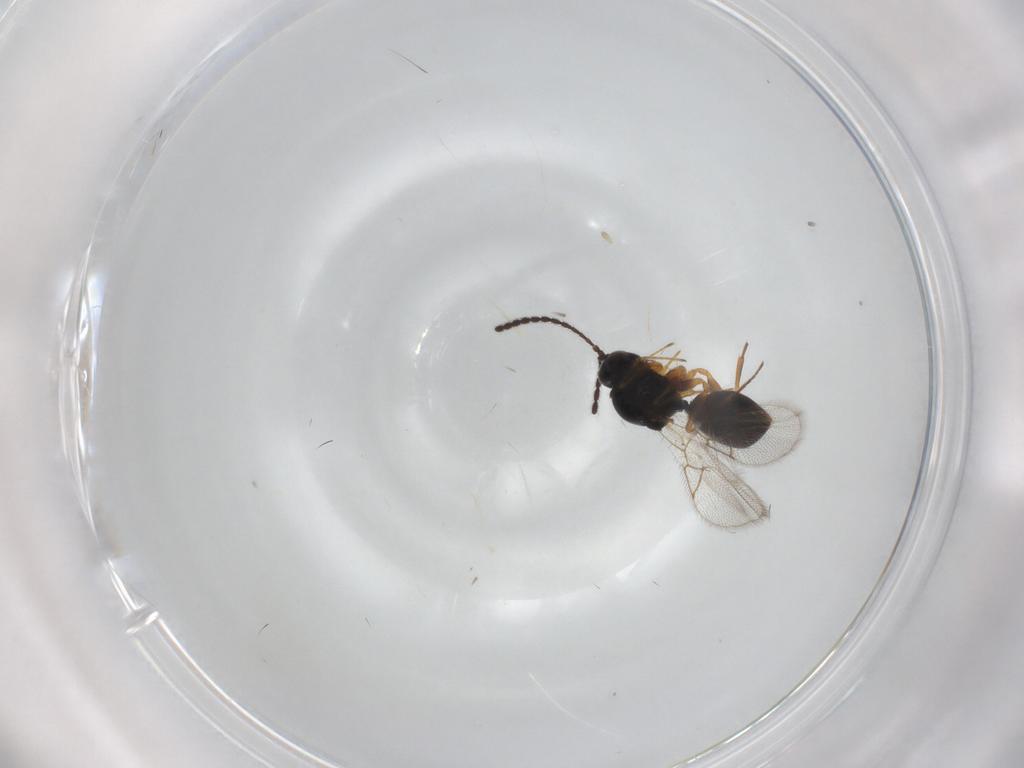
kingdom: Animalia
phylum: Arthropoda
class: Insecta
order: Hymenoptera
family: Figitidae
